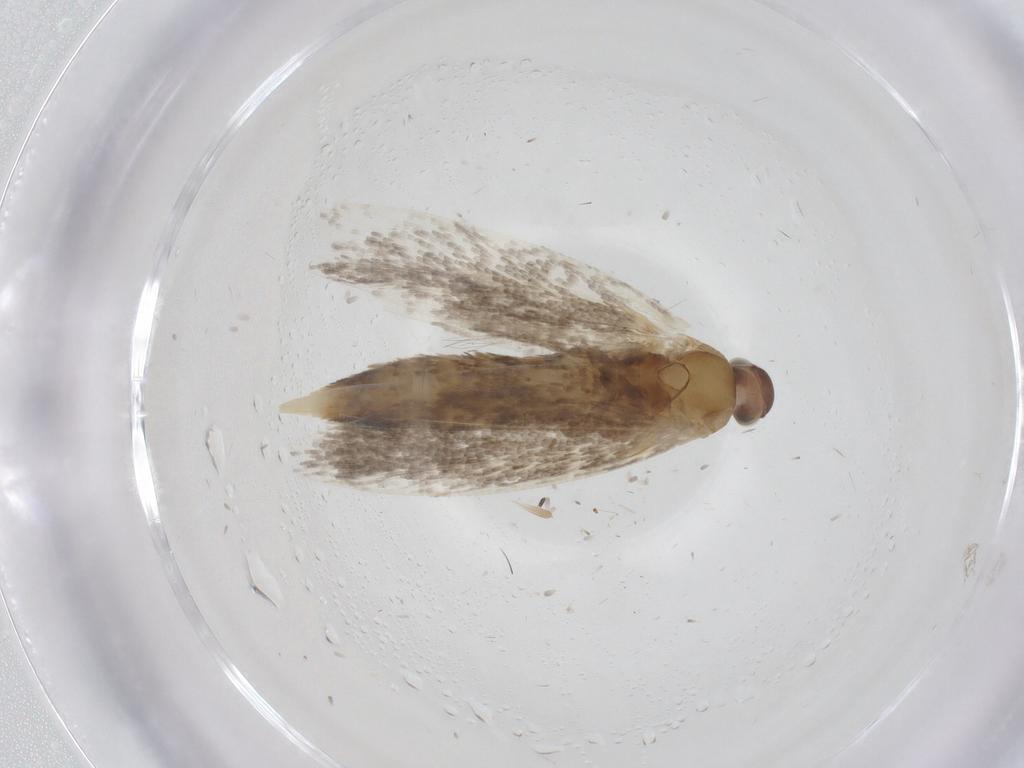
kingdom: Animalia
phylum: Arthropoda
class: Insecta
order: Lepidoptera
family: Glyphipterigidae
